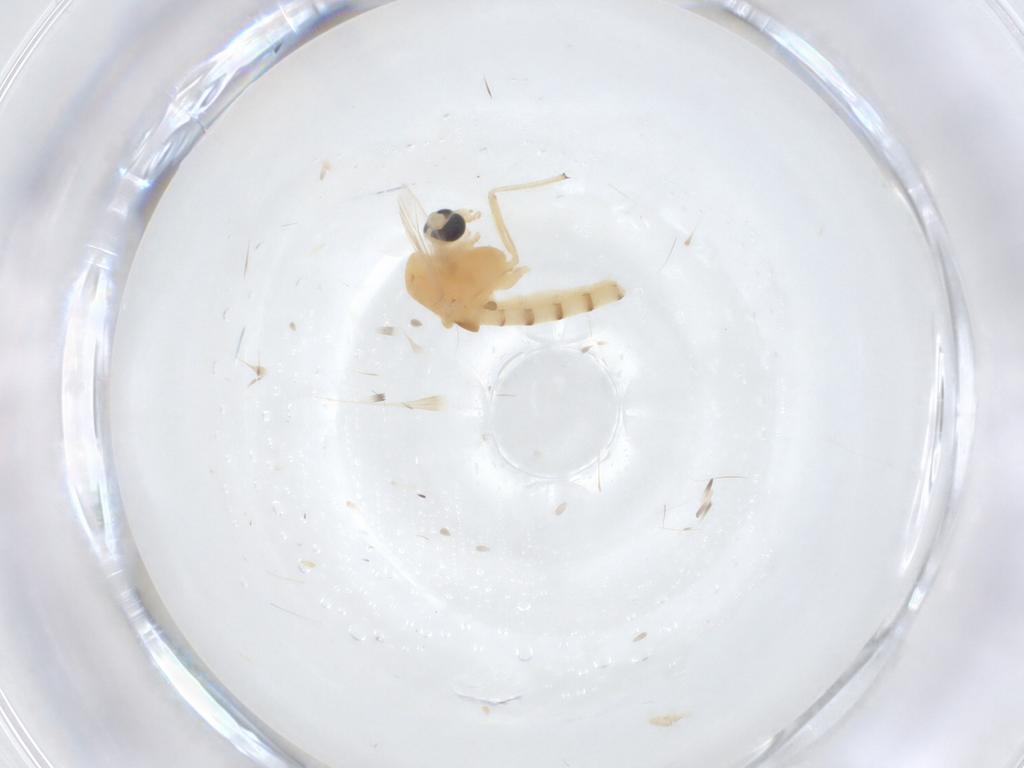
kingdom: Animalia
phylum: Arthropoda
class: Insecta
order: Diptera
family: Chironomidae
